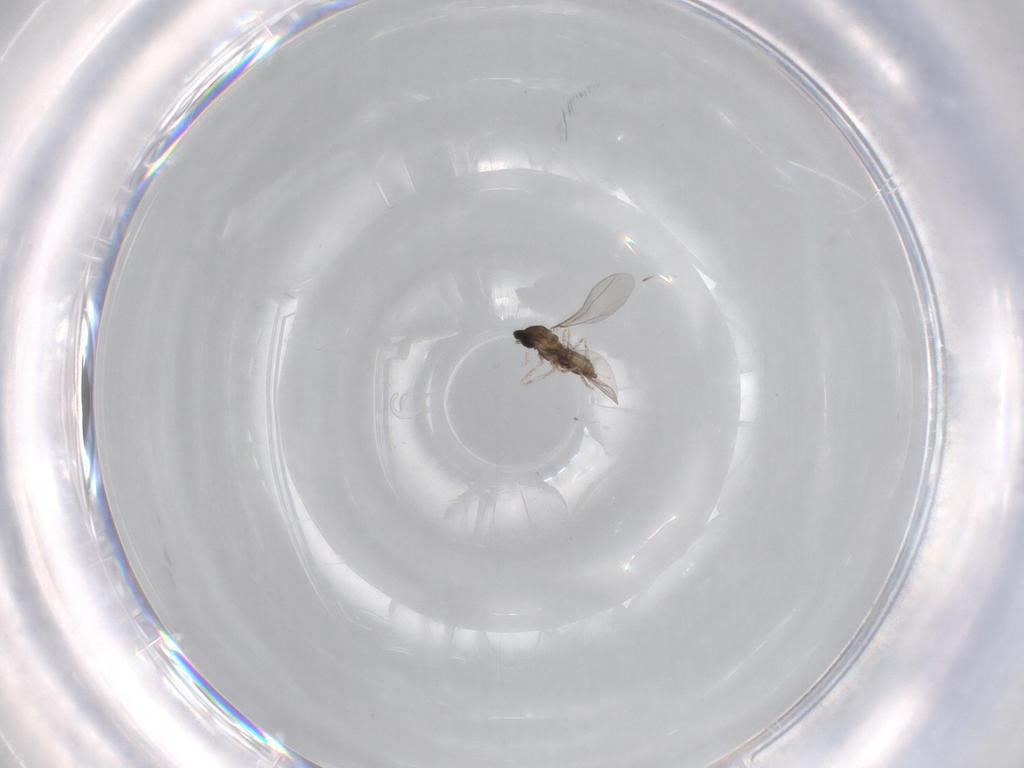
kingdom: Animalia
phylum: Arthropoda
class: Insecta
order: Diptera
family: Cecidomyiidae
